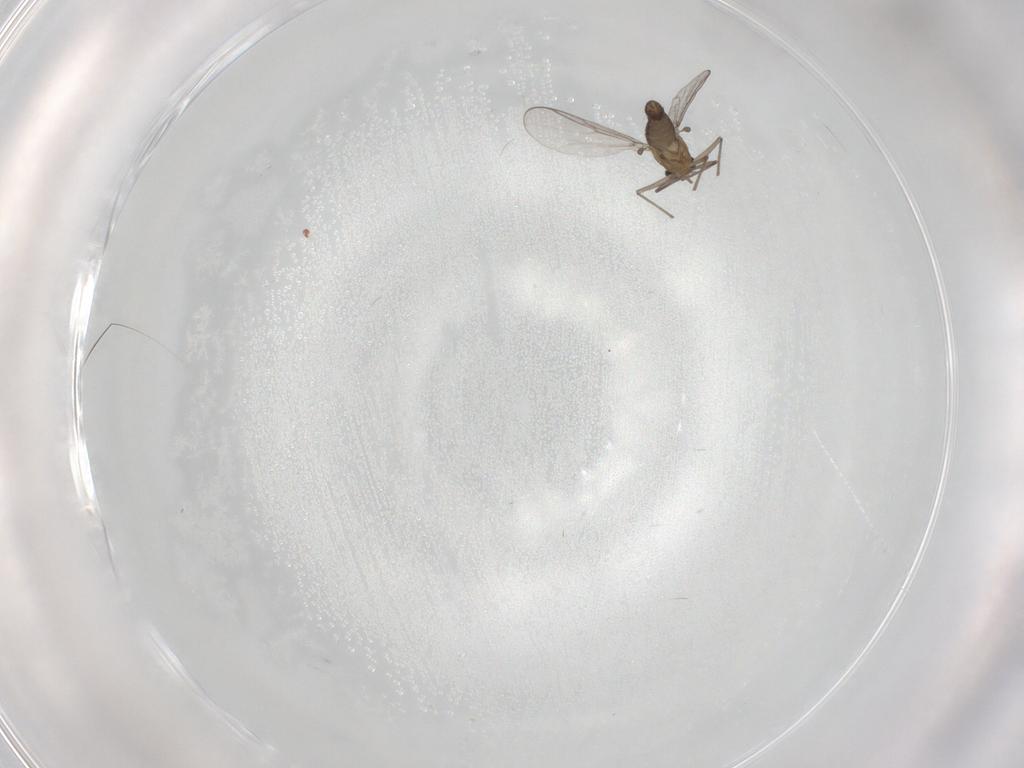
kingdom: Animalia
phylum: Arthropoda
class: Insecta
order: Diptera
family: Chironomidae
